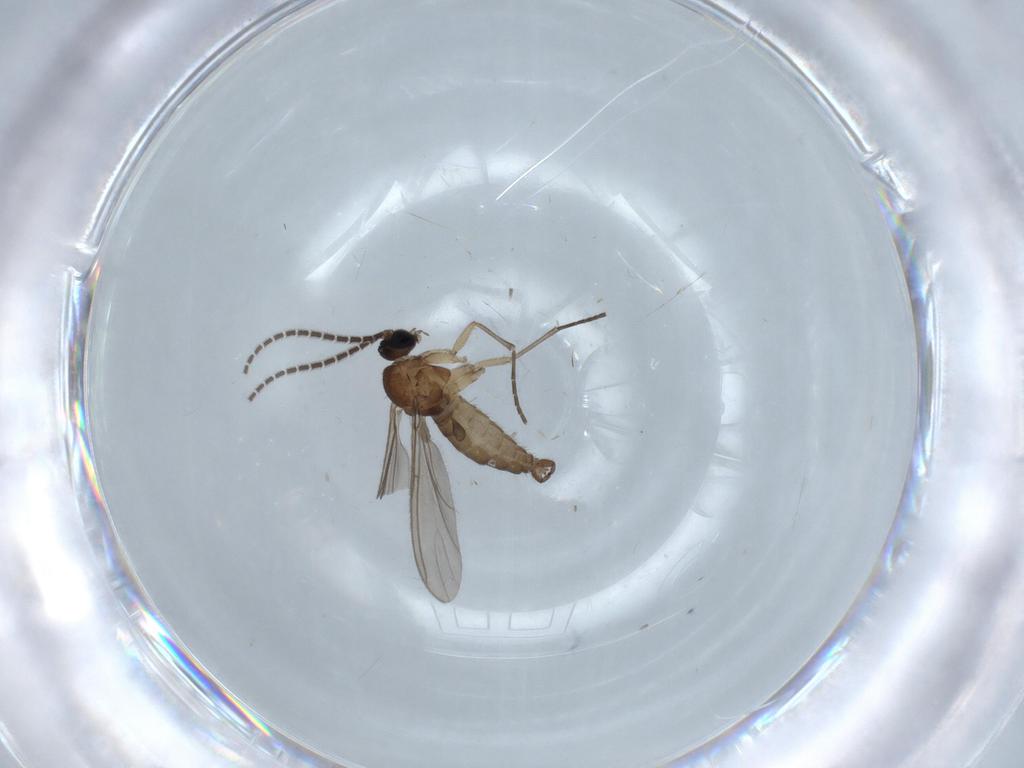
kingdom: Animalia
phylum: Arthropoda
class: Insecta
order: Diptera
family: Sciaridae
